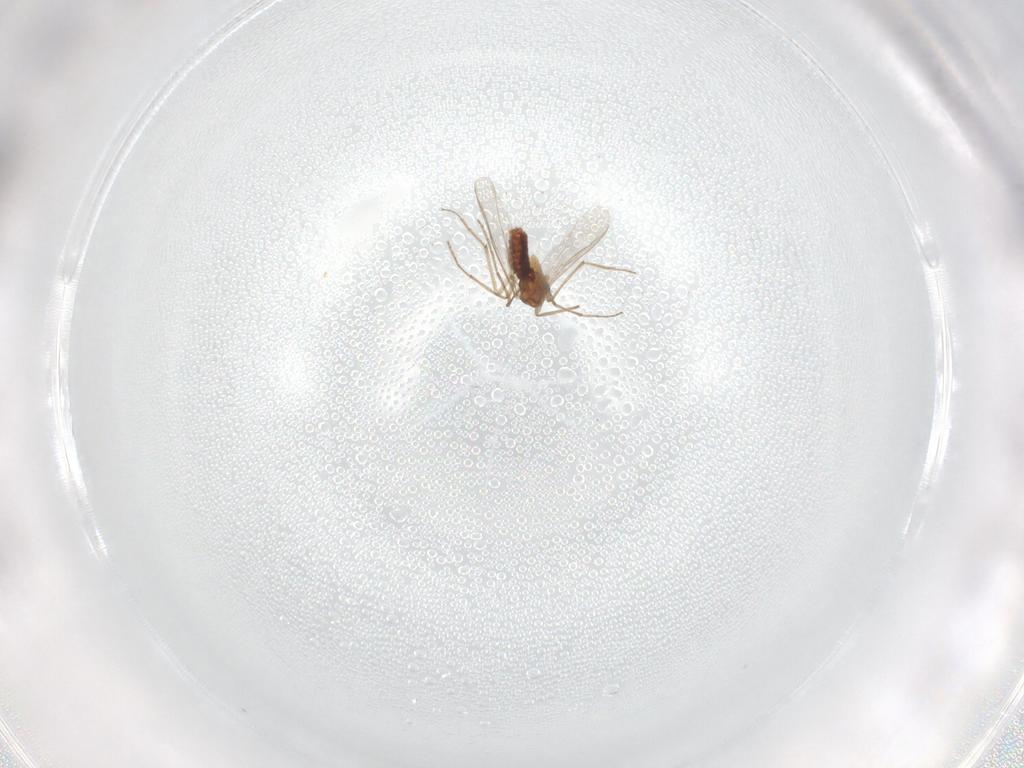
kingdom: Animalia
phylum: Arthropoda
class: Insecta
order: Diptera
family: Chironomidae
